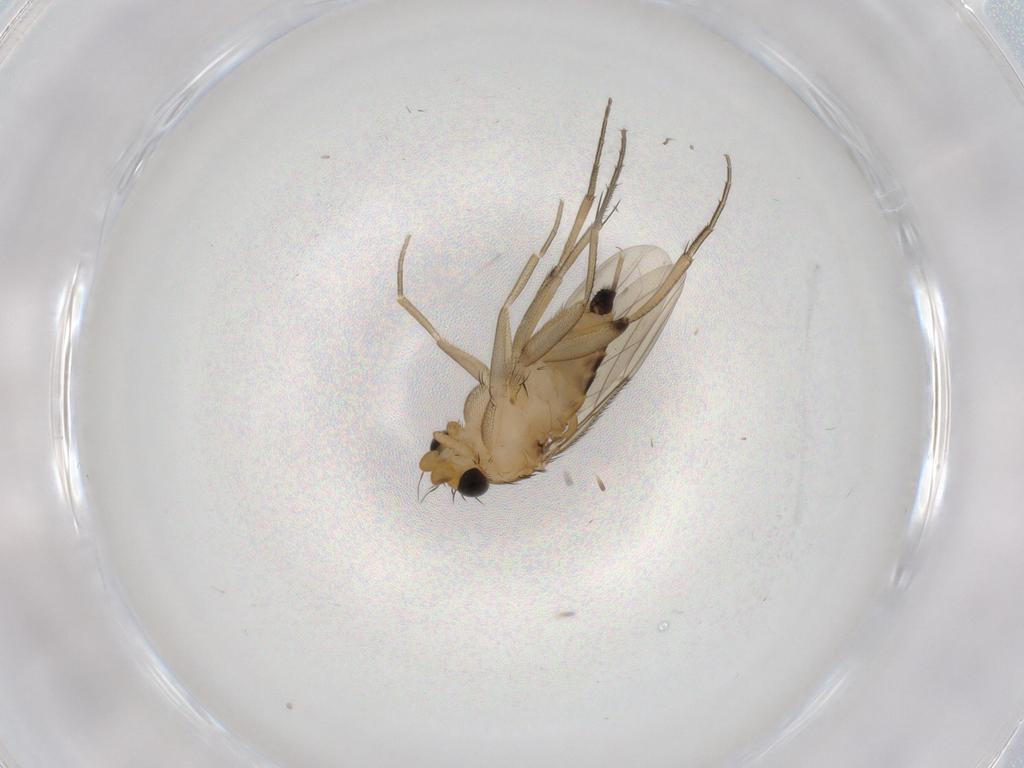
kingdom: Animalia
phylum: Arthropoda
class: Insecta
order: Diptera
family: Phoridae
